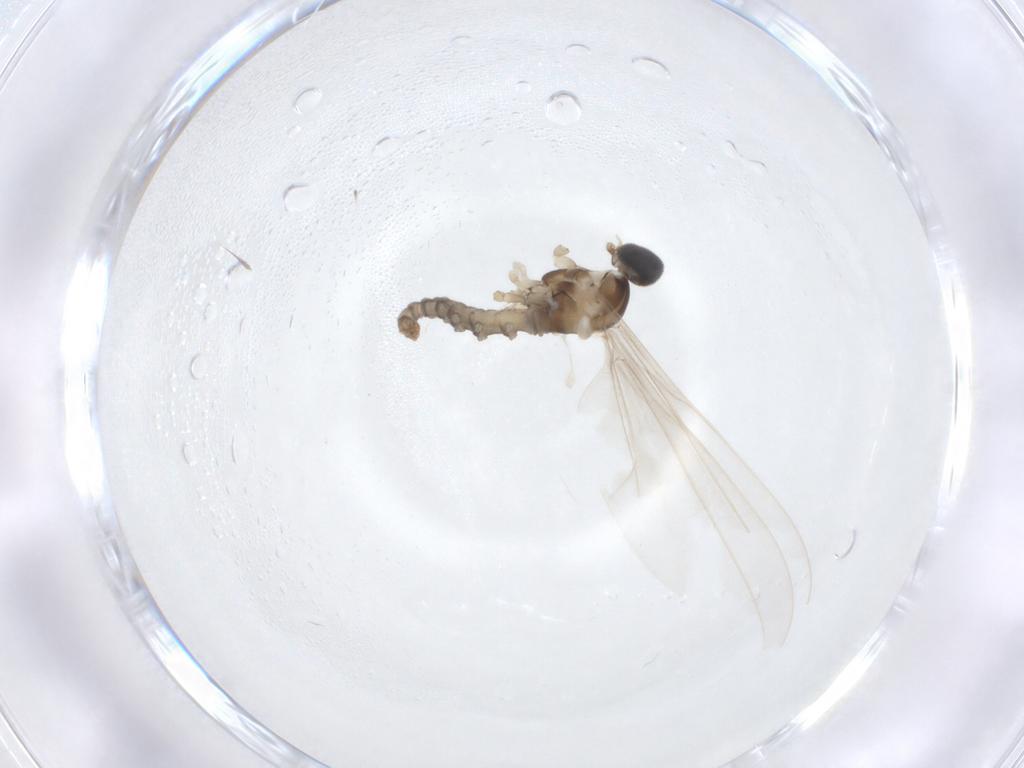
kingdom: Animalia
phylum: Arthropoda
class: Insecta
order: Diptera
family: Cecidomyiidae
